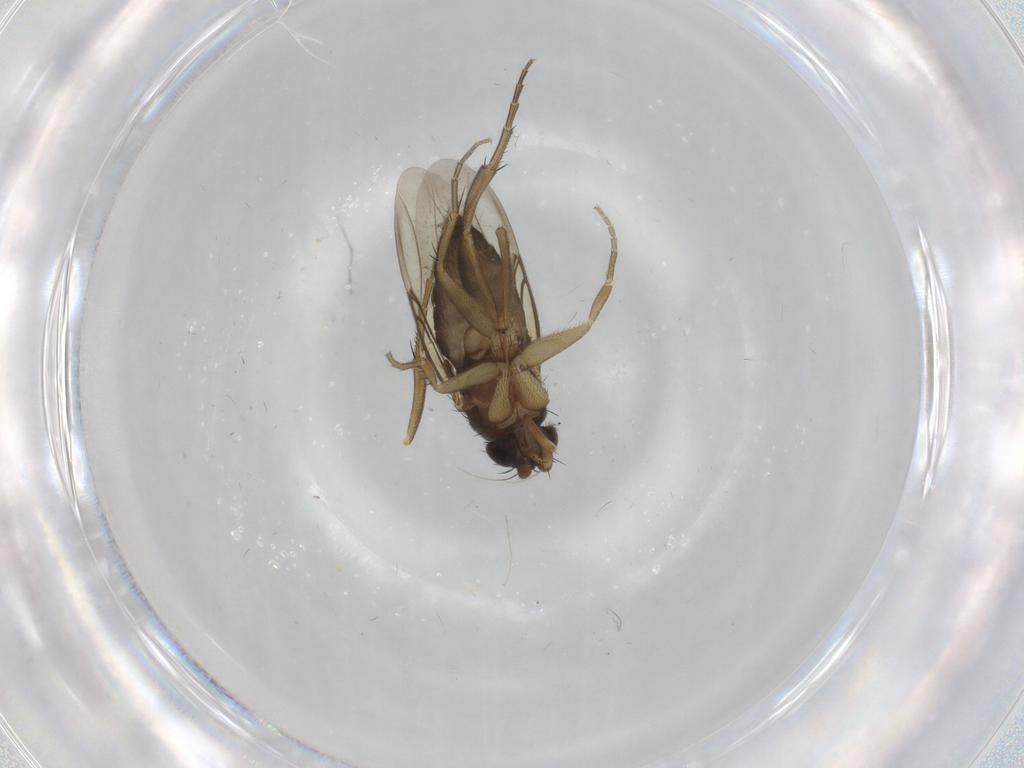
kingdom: Animalia
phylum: Arthropoda
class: Insecta
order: Diptera
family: Phoridae
